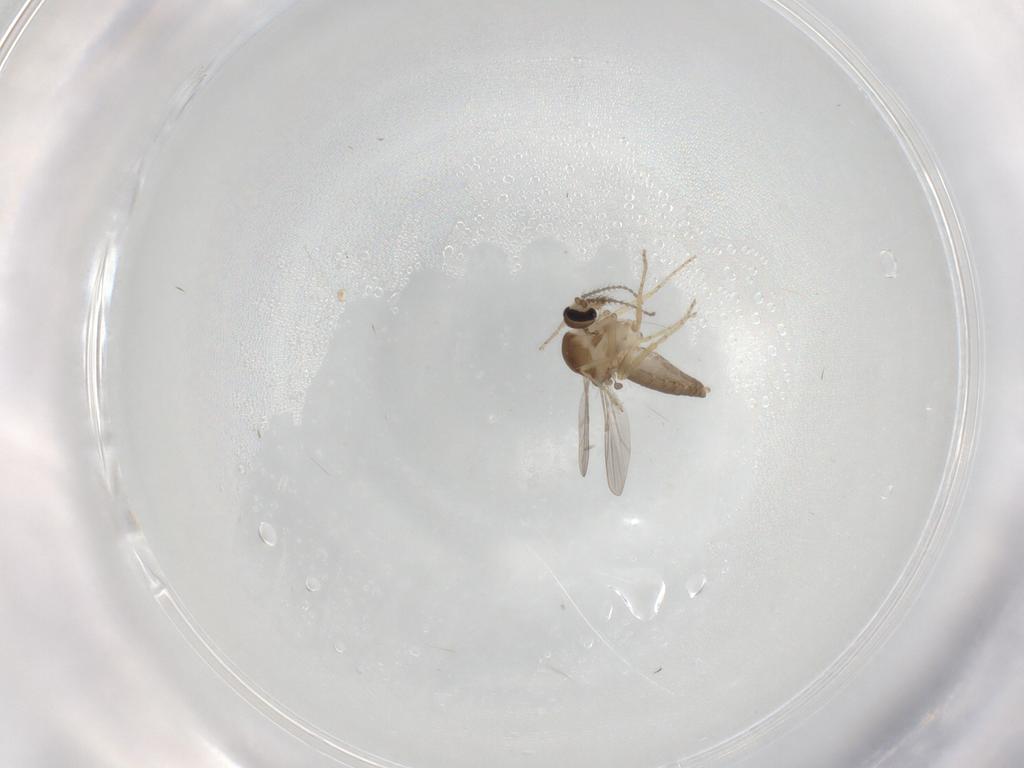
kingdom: Animalia
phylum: Arthropoda
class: Insecta
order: Diptera
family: Ceratopogonidae
